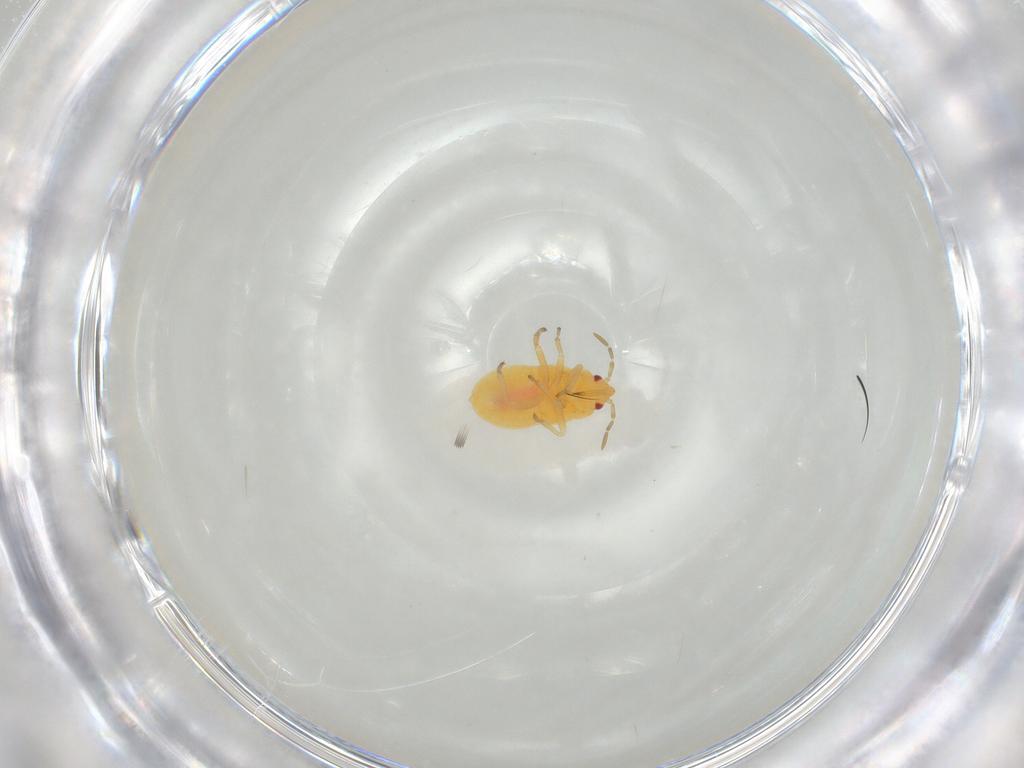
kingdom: Animalia
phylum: Arthropoda
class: Insecta
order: Hemiptera
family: Anthocoridae
